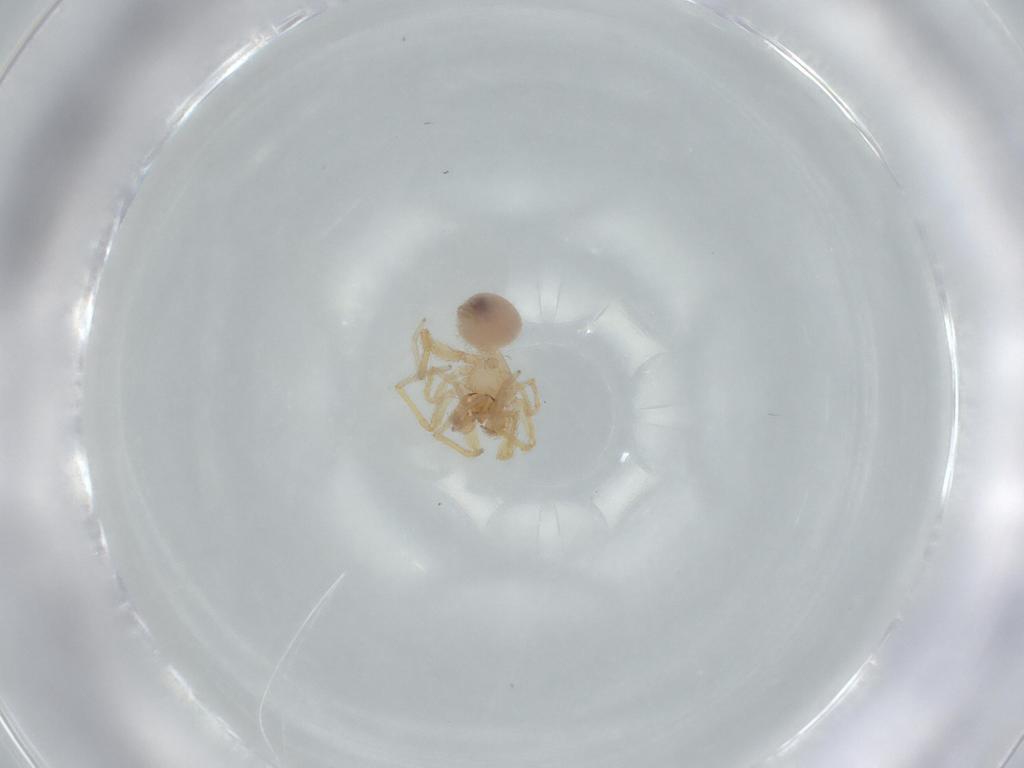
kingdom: Animalia
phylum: Arthropoda
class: Arachnida
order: Araneae
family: Oonopidae
